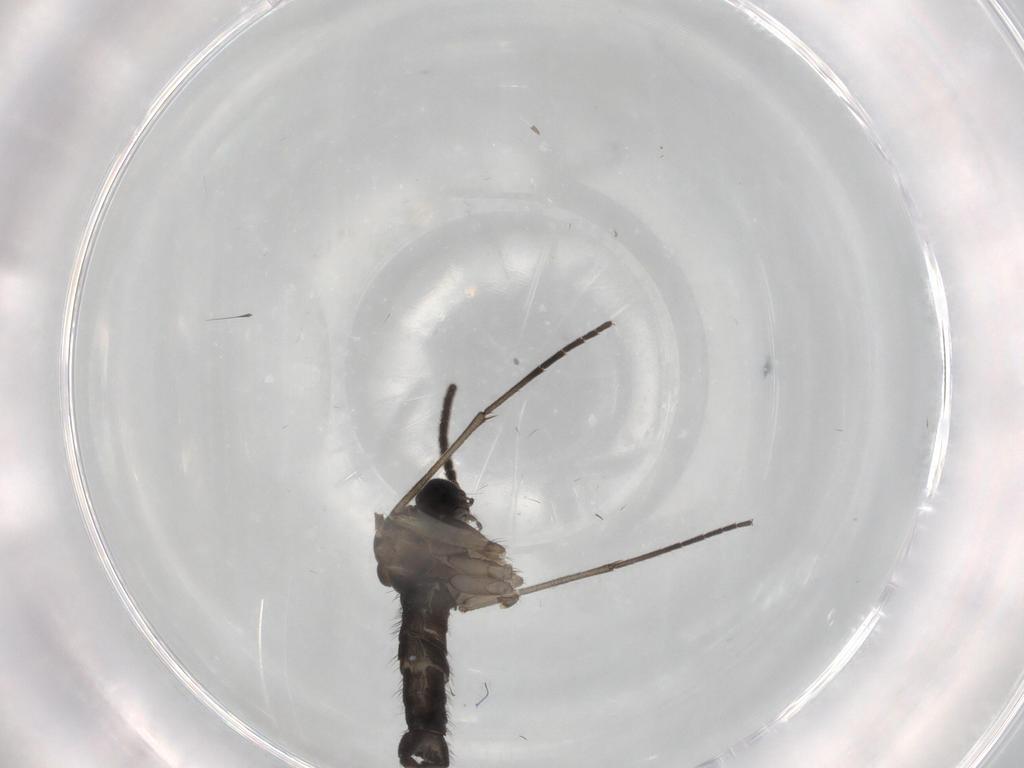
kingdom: Animalia
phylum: Arthropoda
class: Insecta
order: Diptera
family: Sciaridae
